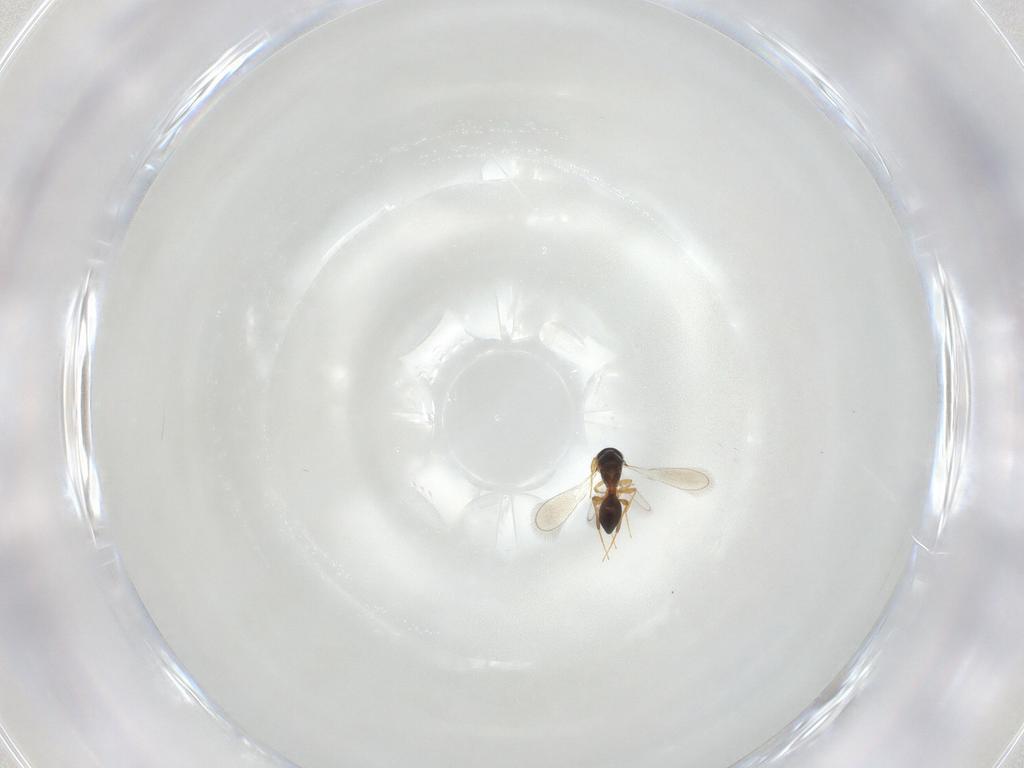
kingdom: Animalia
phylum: Arthropoda
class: Insecta
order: Hymenoptera
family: Platygastridae
